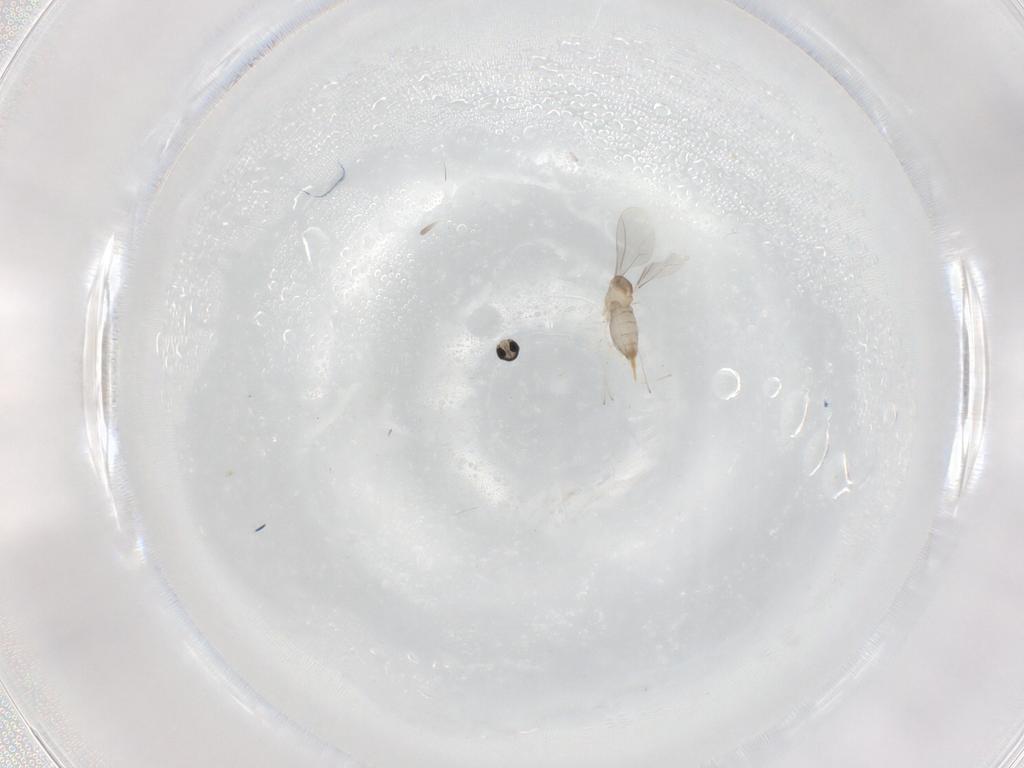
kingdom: Animalia
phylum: Arthropoda
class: Insecta
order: Diptera
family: Cecidomyiidae
